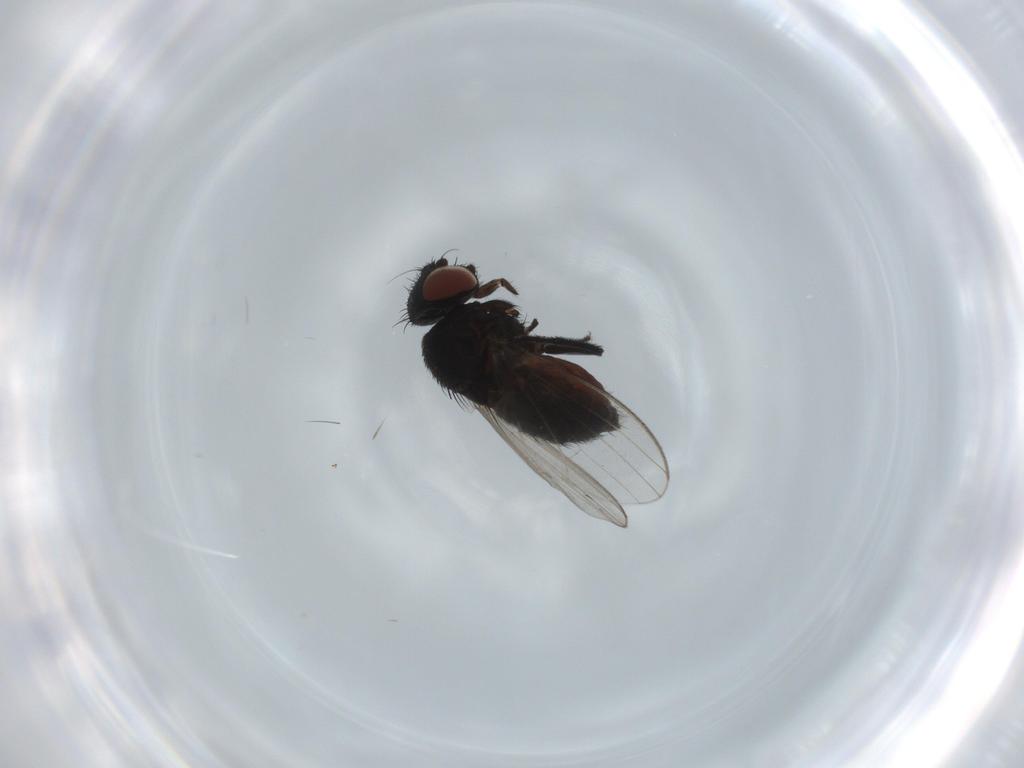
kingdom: Animalia
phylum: Arthropoda
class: Insecta
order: Diptera
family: Milichiidae
